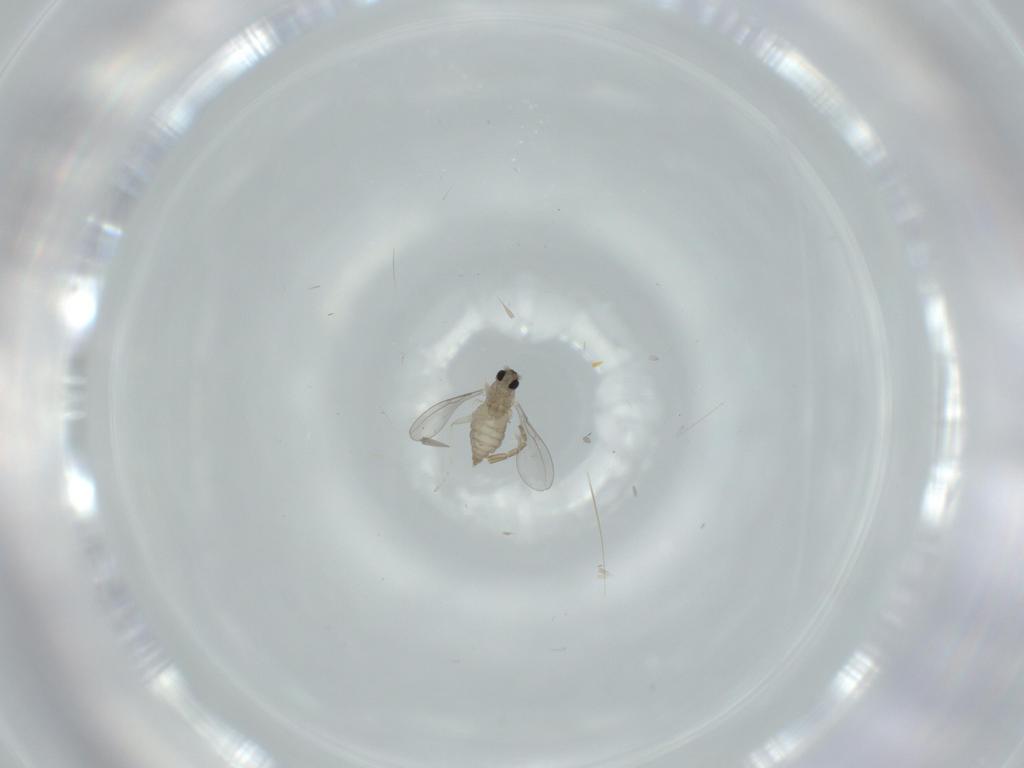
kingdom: Animalia
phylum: Arthropoda
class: Insecta
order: Diptera
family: Cecidomyiidae
